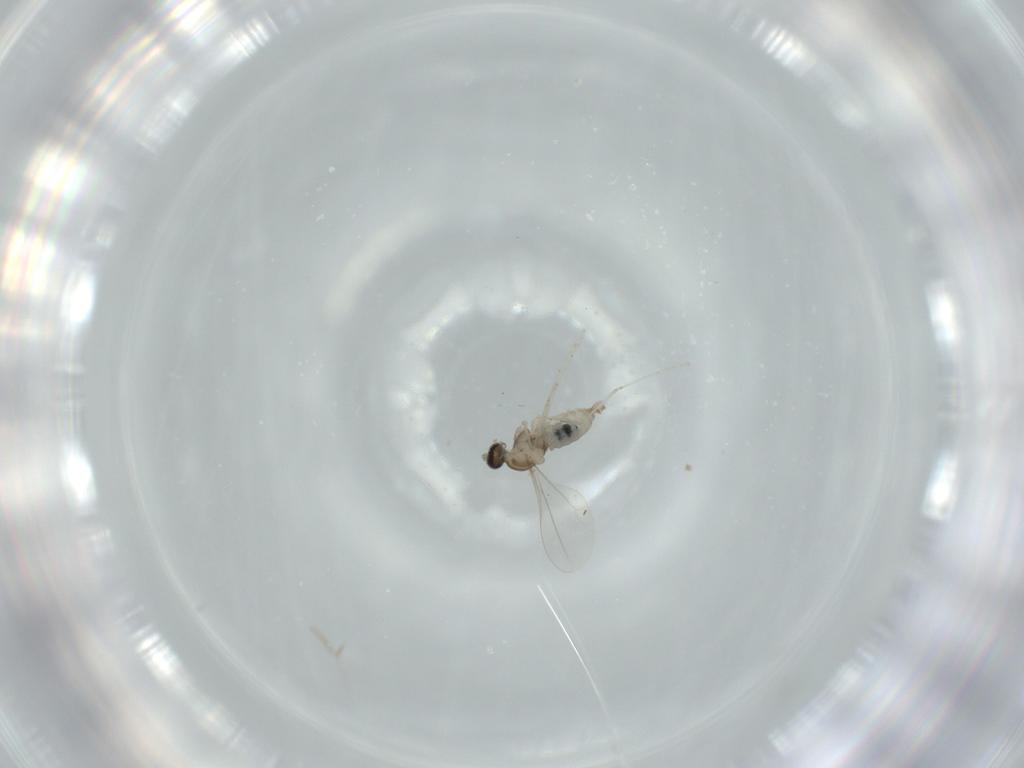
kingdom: Animalia
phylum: Arthropoda
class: Insecta
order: Diptera
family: Cecidomyiidae
